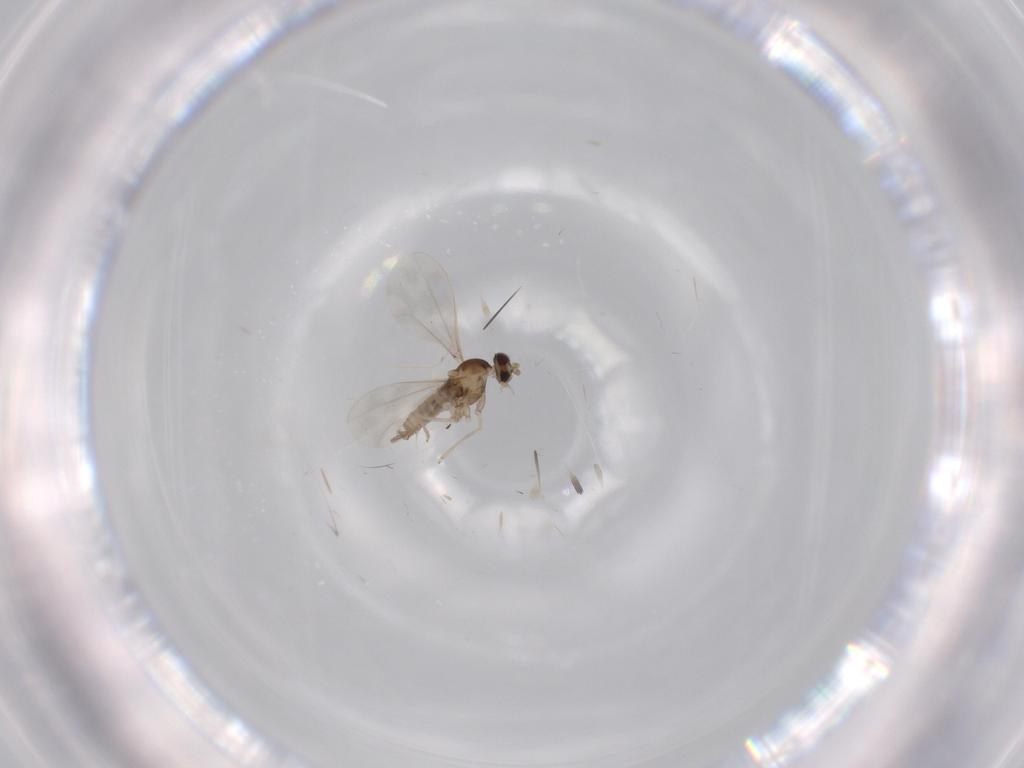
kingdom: Animalia
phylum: Arthropoda
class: Insecta
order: Diptera
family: Cecidomyiidae
